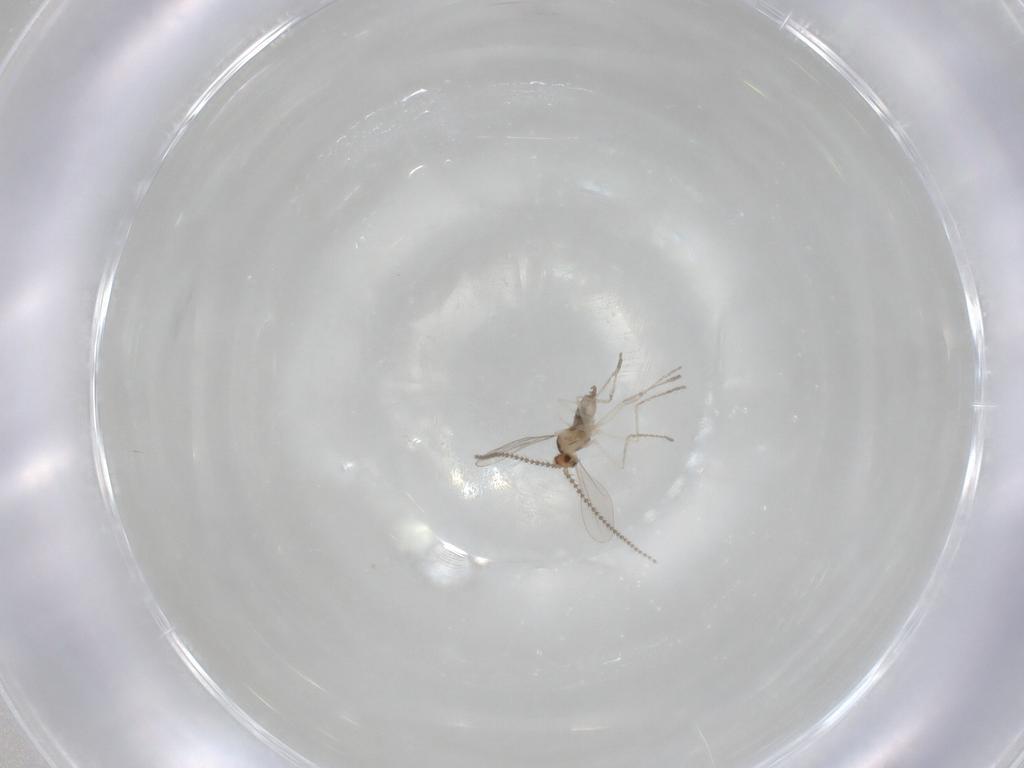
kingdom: Animalia
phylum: Arthropoda
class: Insecta
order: Diptera
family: Cecidomyiidae
